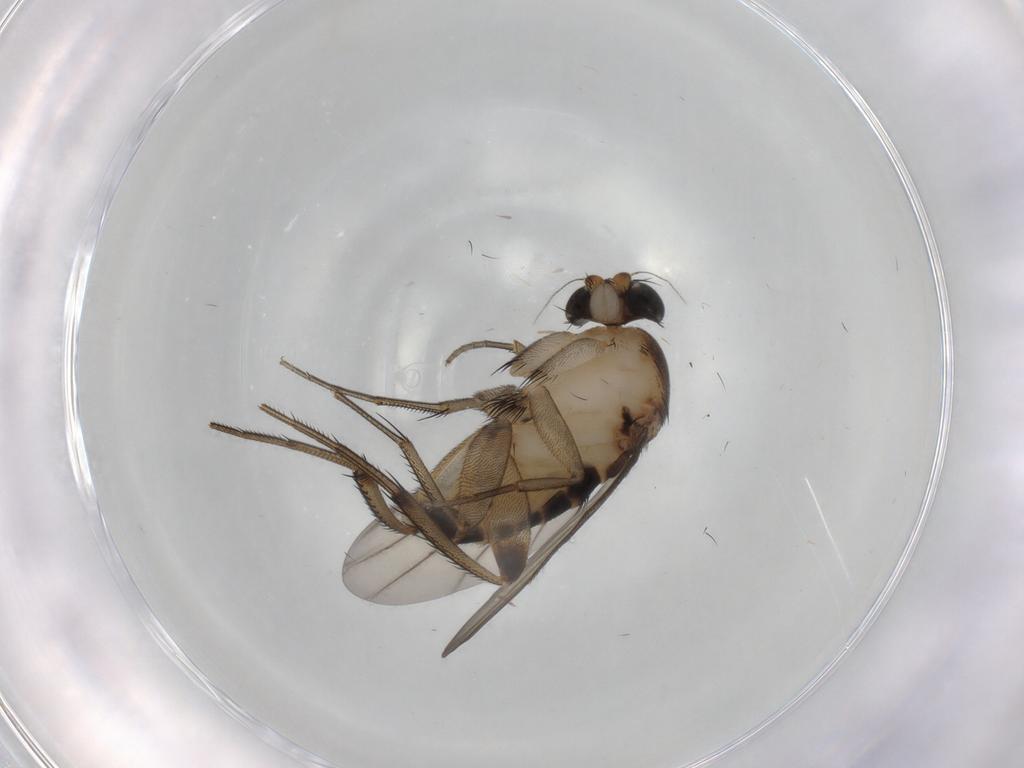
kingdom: Animalia
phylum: Arthropoda
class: Insecta
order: Diptera
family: Phoridae
